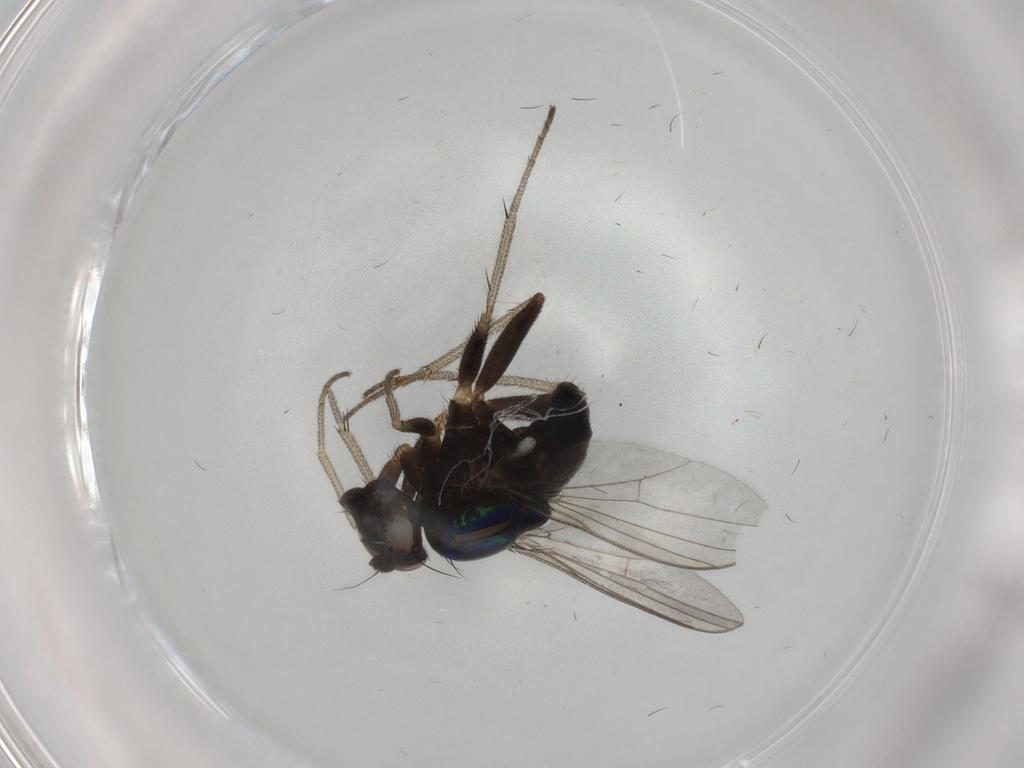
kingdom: Animalia
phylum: Arthropoda
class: Insecta
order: Diptera
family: Dolichopodidae
